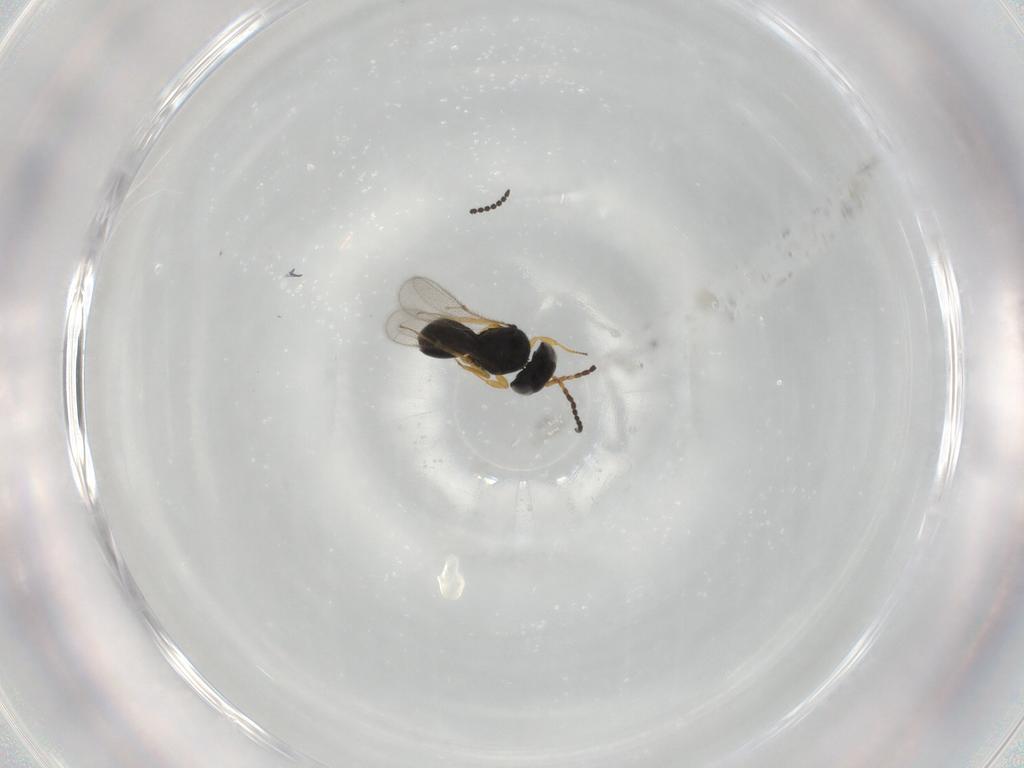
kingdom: Animalia
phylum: Arthropoda
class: Insecta
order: Hymenoptera
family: Scelionidae
